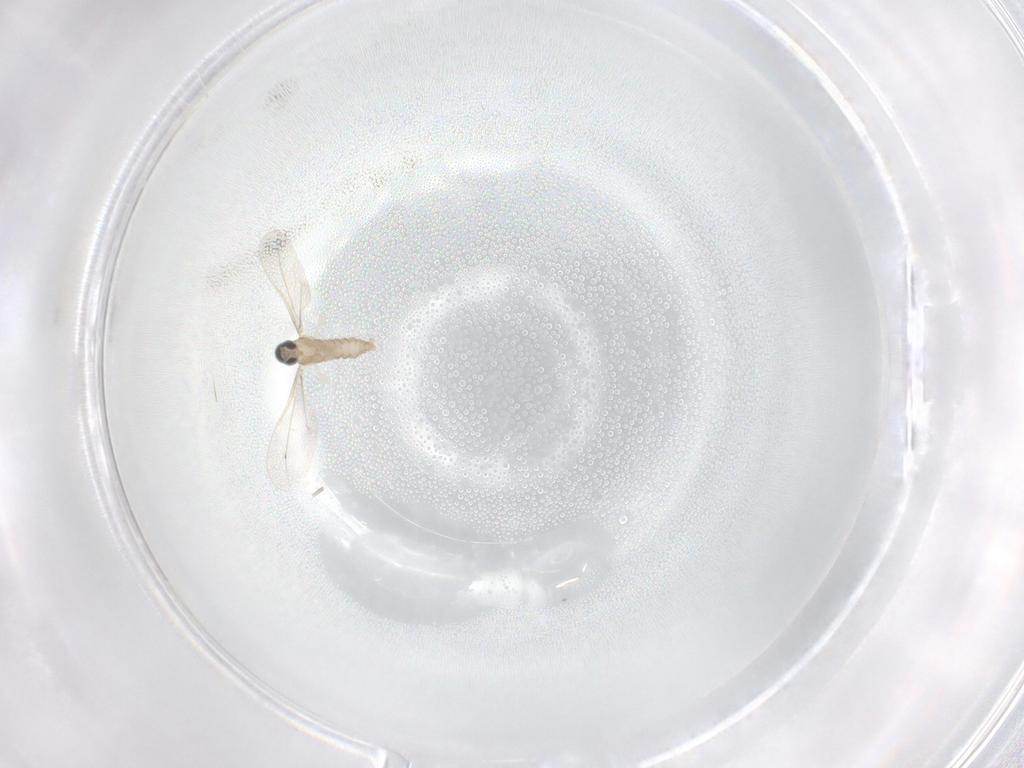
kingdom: Animalia
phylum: Arthropoda
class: Insecta
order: Diptera
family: Cecidomyiidae
